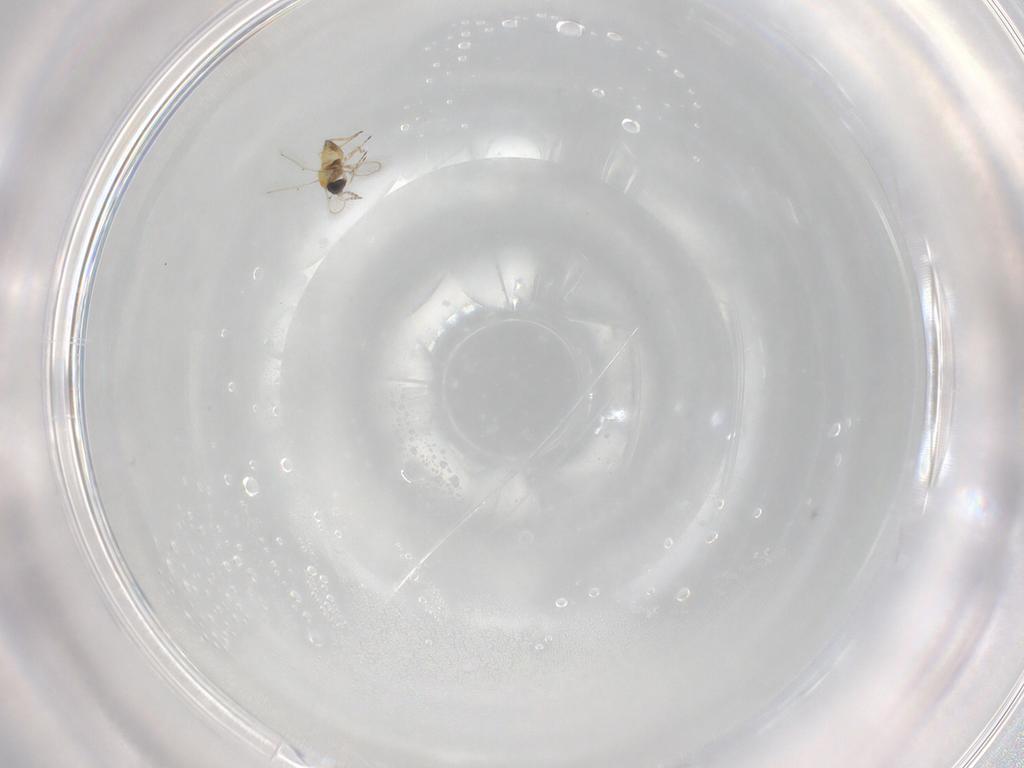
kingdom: Animalia
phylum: Arthropoda
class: Insecta
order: Hymenoptera
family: Trichogrammatidae
